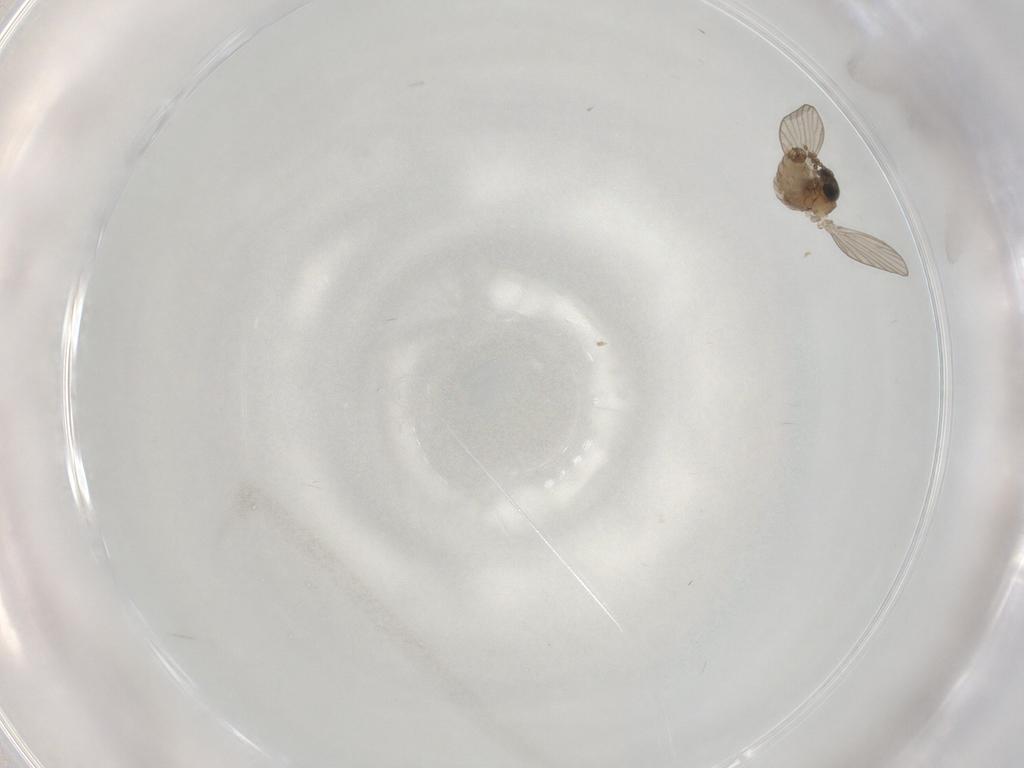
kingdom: Animalia
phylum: Arthropoda
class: Insecta
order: Diptera
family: Psychodidae
